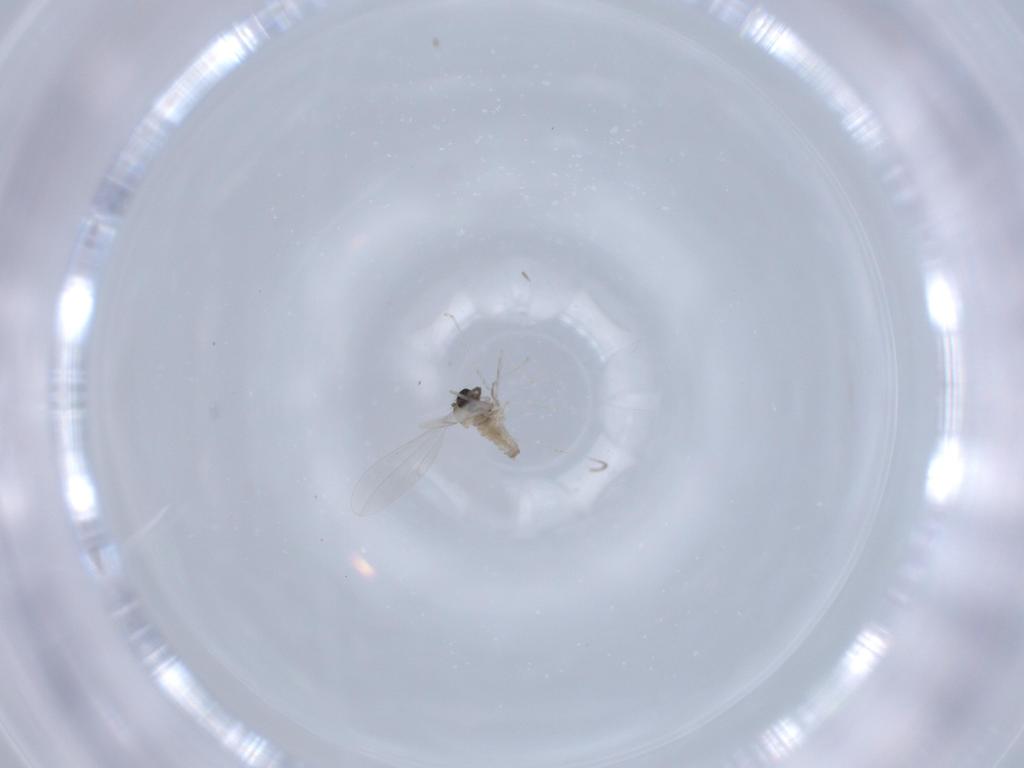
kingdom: Animalia
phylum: Arthropoda
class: Insecta
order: Diptera
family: Cecidomyiidae
